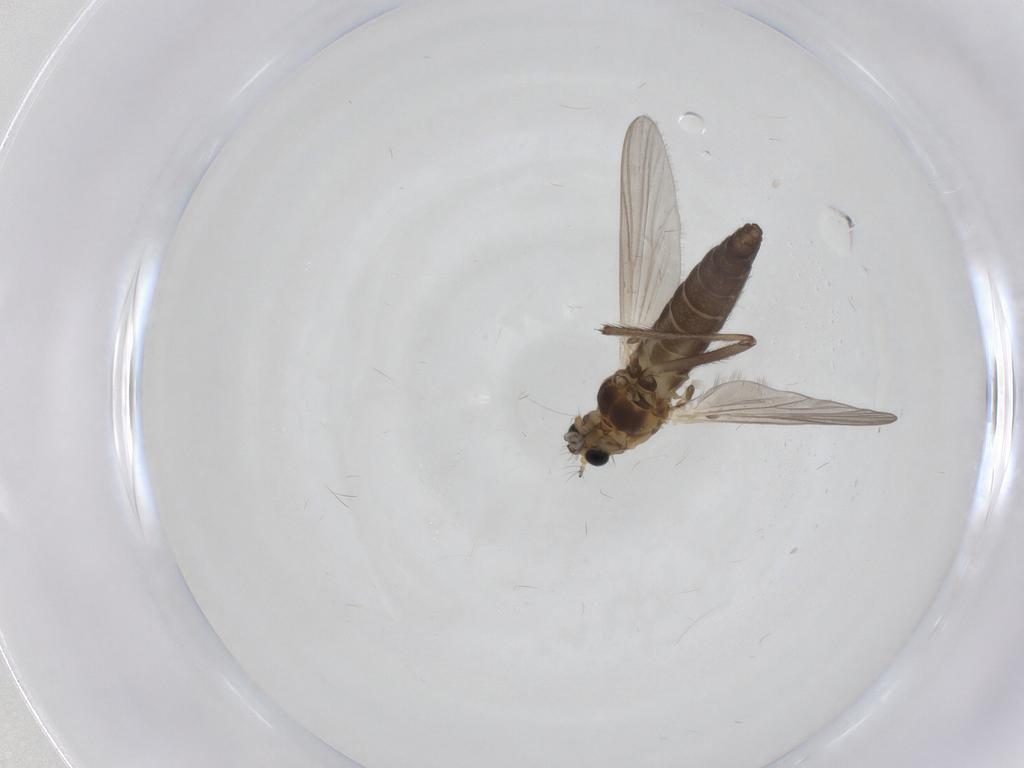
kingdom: Animalia
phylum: Arthropoda
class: Insecta
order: Diptera
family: Chironomidae
